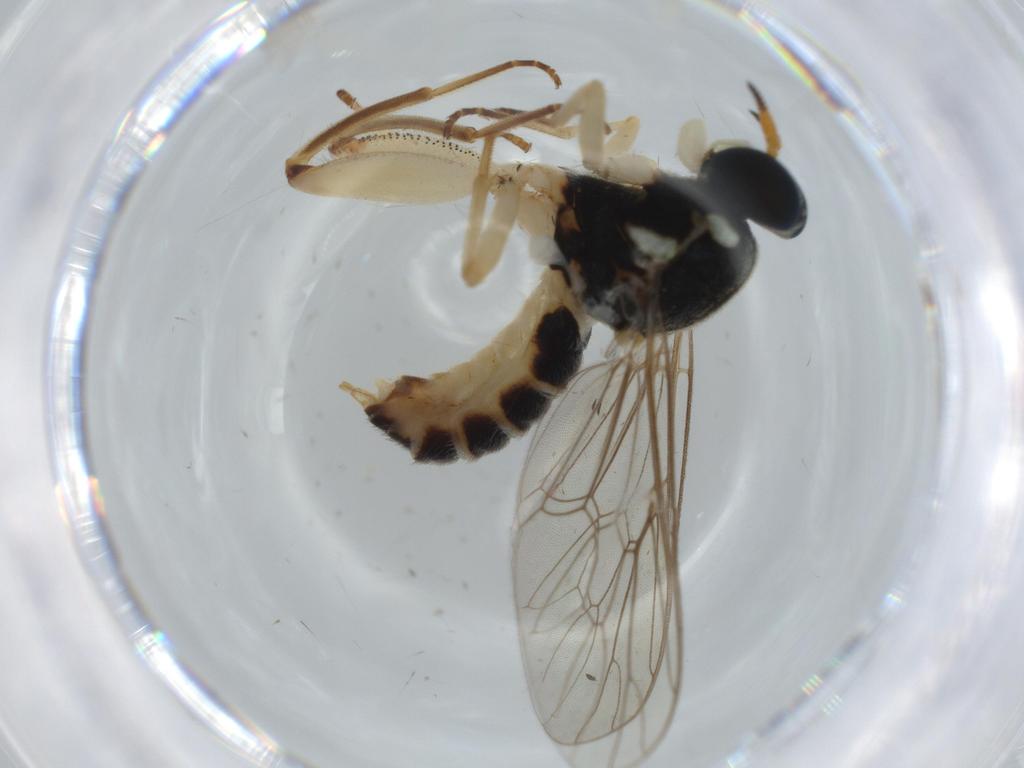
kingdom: Animalia
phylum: Arthropoda
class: Insecta
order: Diptera
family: Cecidomyiidae
